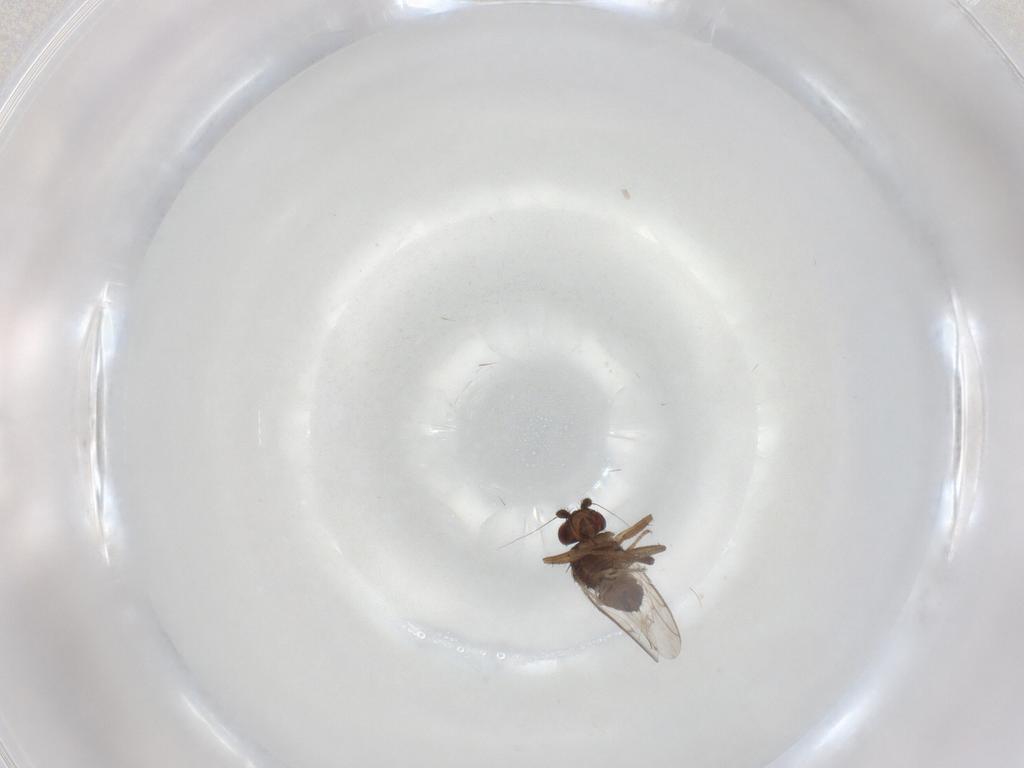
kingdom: Animalia
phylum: Arthropoda
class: Insecta
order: Diptera
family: Sphaeroceridae
